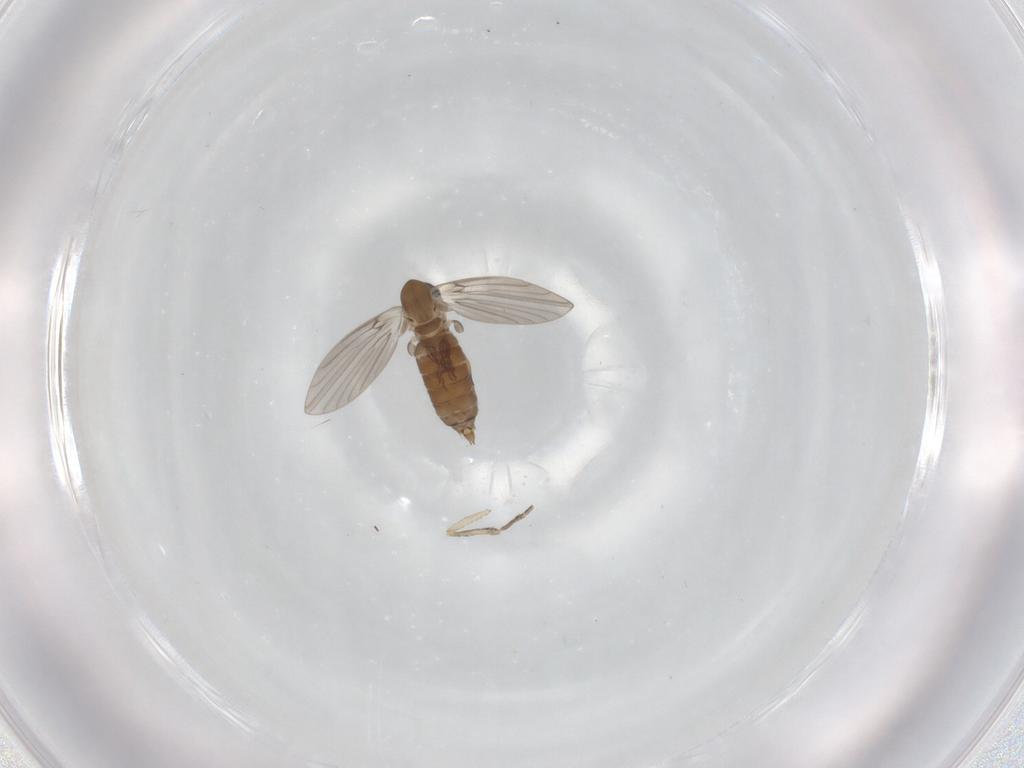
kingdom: Animalia
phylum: Arthropoda
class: Insecta
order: Diptera
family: Psychodidae
